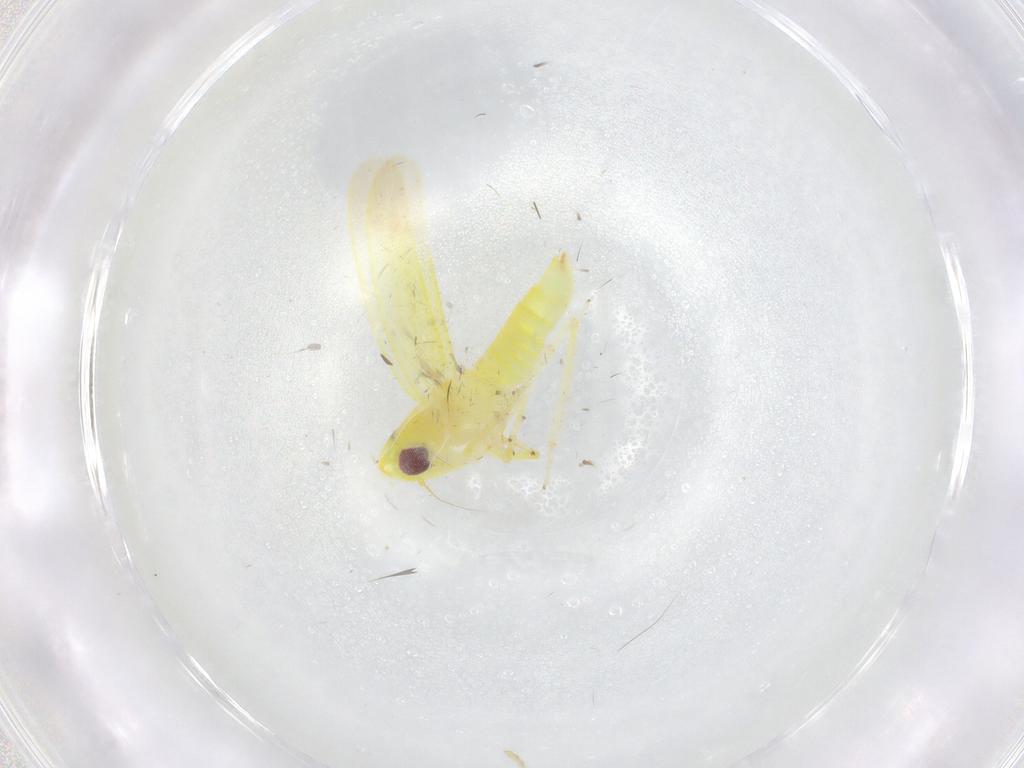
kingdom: Animalia
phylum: Arthropoda
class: Insecta
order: Hemiptera
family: Cicadellidae
